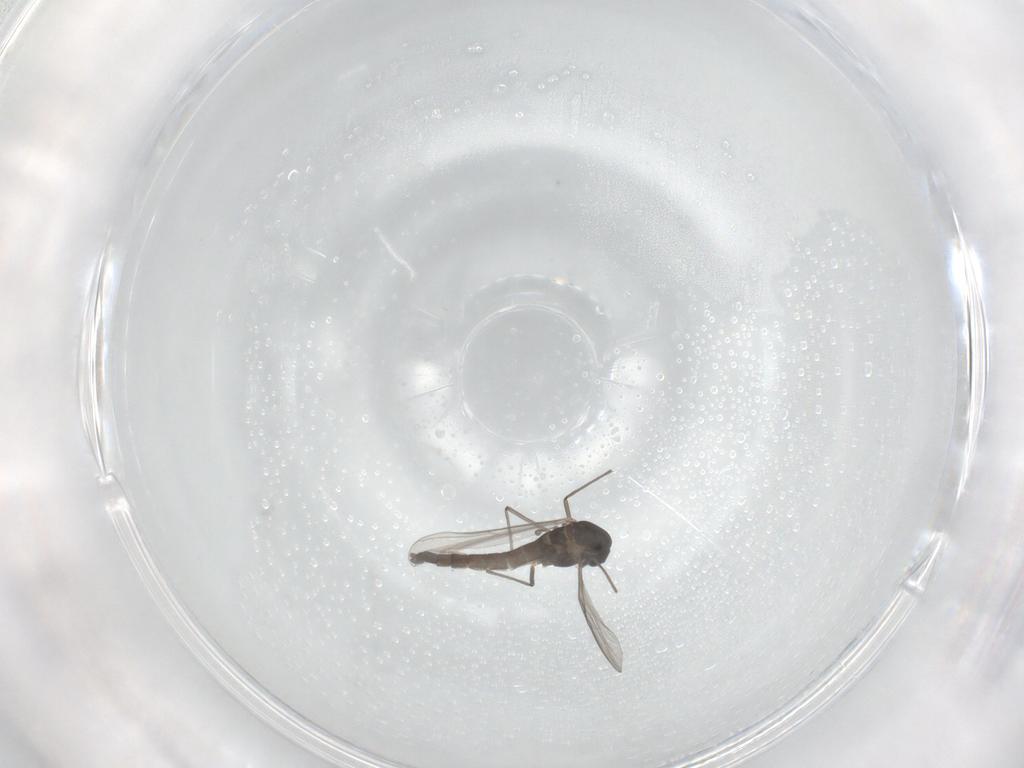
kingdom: Animalia
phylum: Arthropoda
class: Insecta
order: Diptera
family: Chironomidae
